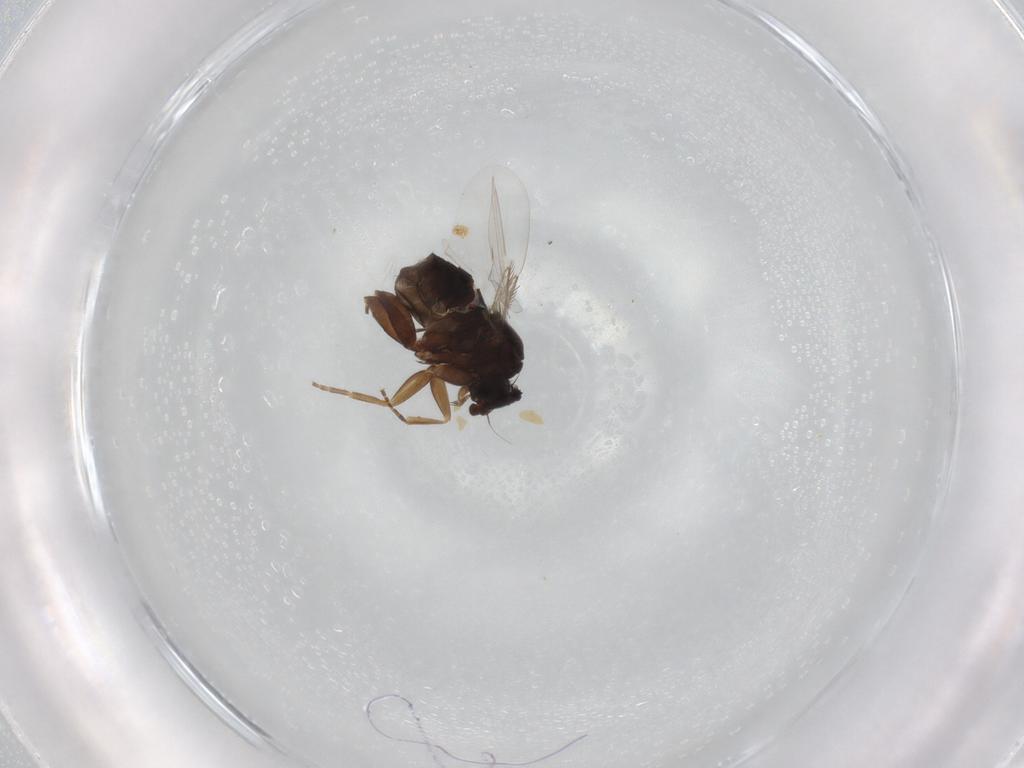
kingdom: Animalia
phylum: Arthropoda
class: Insecta
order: Diptera
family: Phoridae
